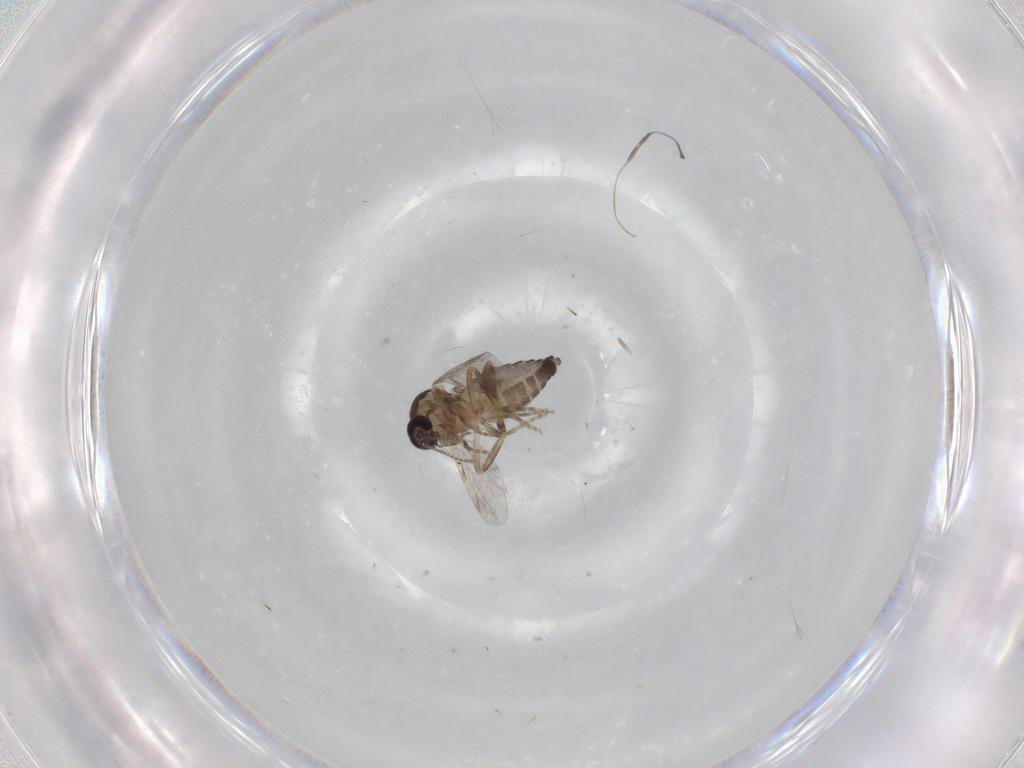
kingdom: Animalia
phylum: Arthropoda
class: Insecta
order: Diptera
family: Ceratopogonidae
